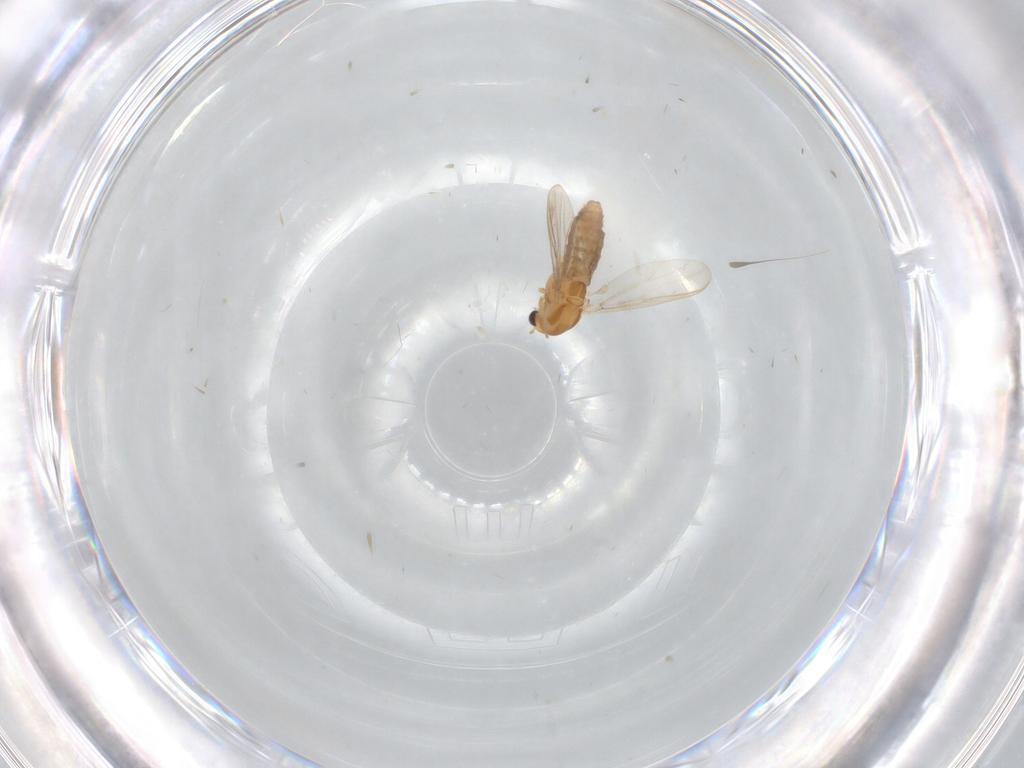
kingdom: Animalia
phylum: Arthropoda
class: Insecta
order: Diptera
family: Chironomidae
